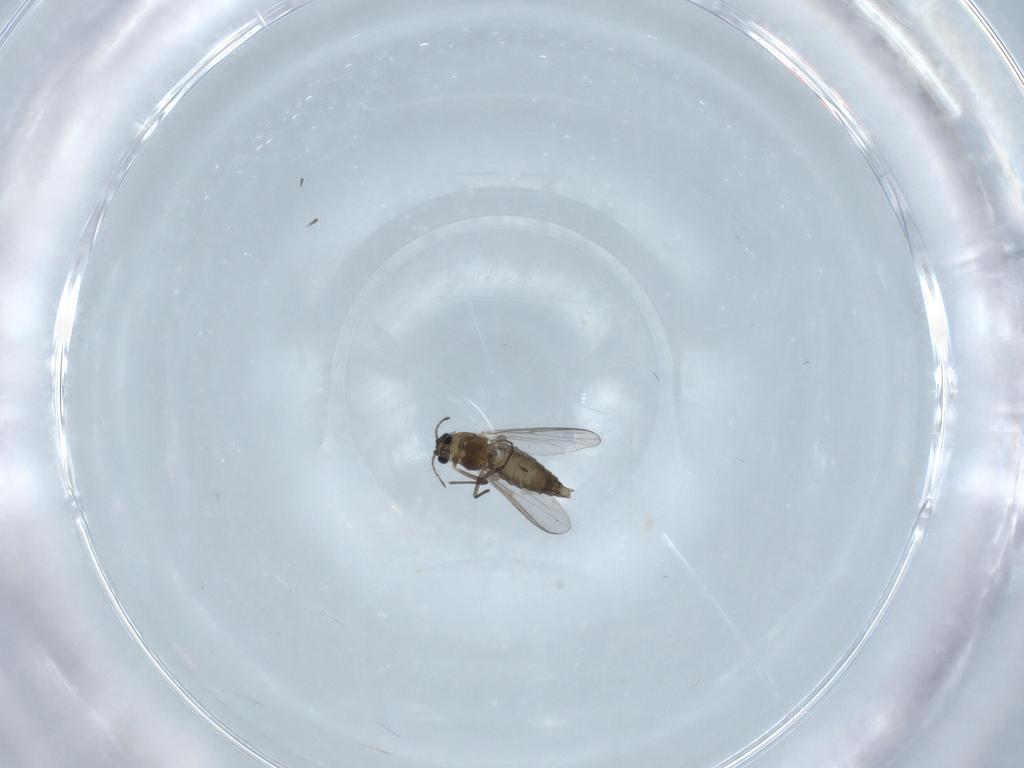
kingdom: Animalia
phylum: Arthropoda
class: Insecta
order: Diptera
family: Chironomidae
